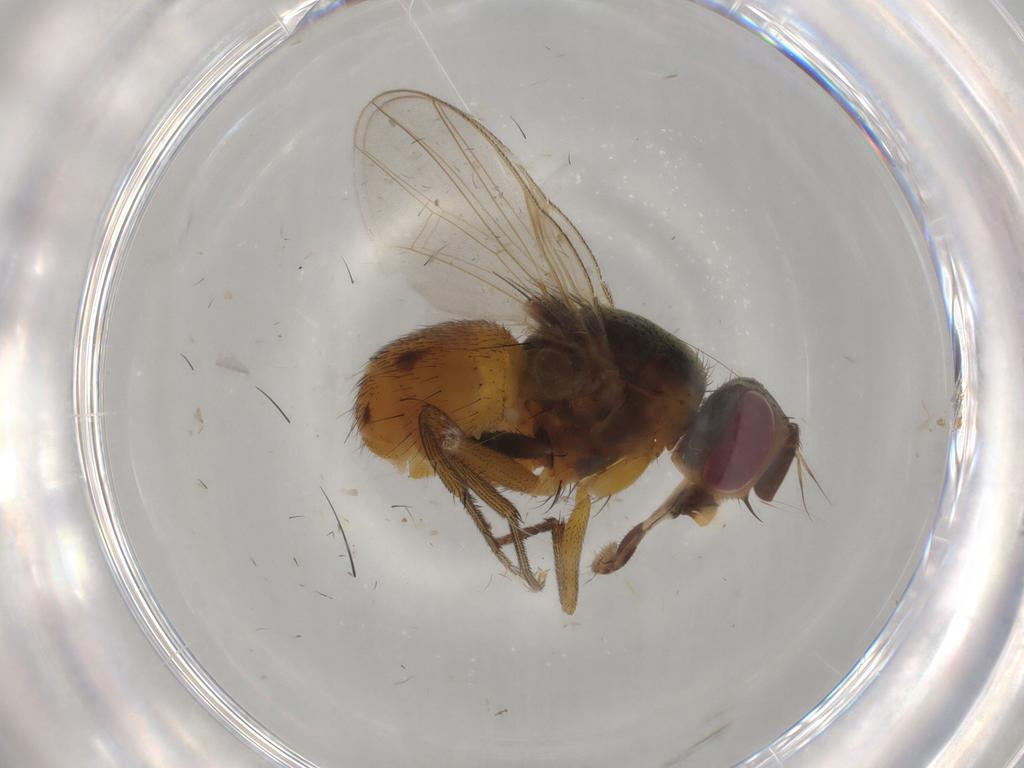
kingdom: Animalia
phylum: Arthropoda
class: Insecta
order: Diptera
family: Muscidae
